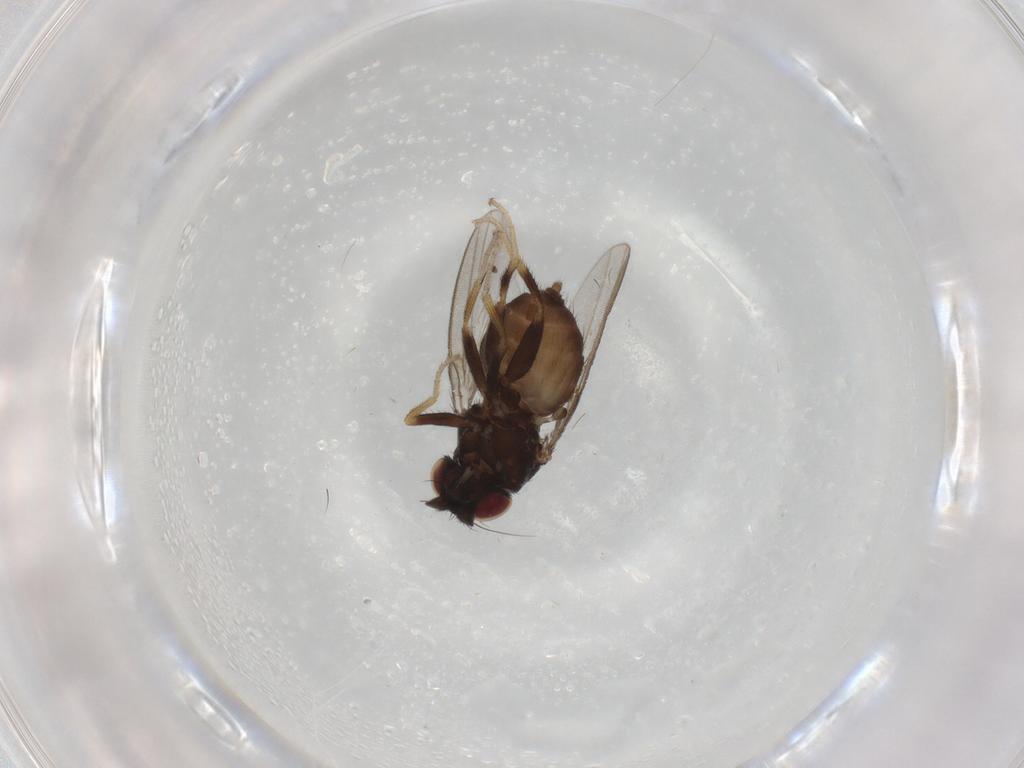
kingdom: Animalia
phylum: Arthropoda
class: Insecta
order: Diptera
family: Milichiidae
